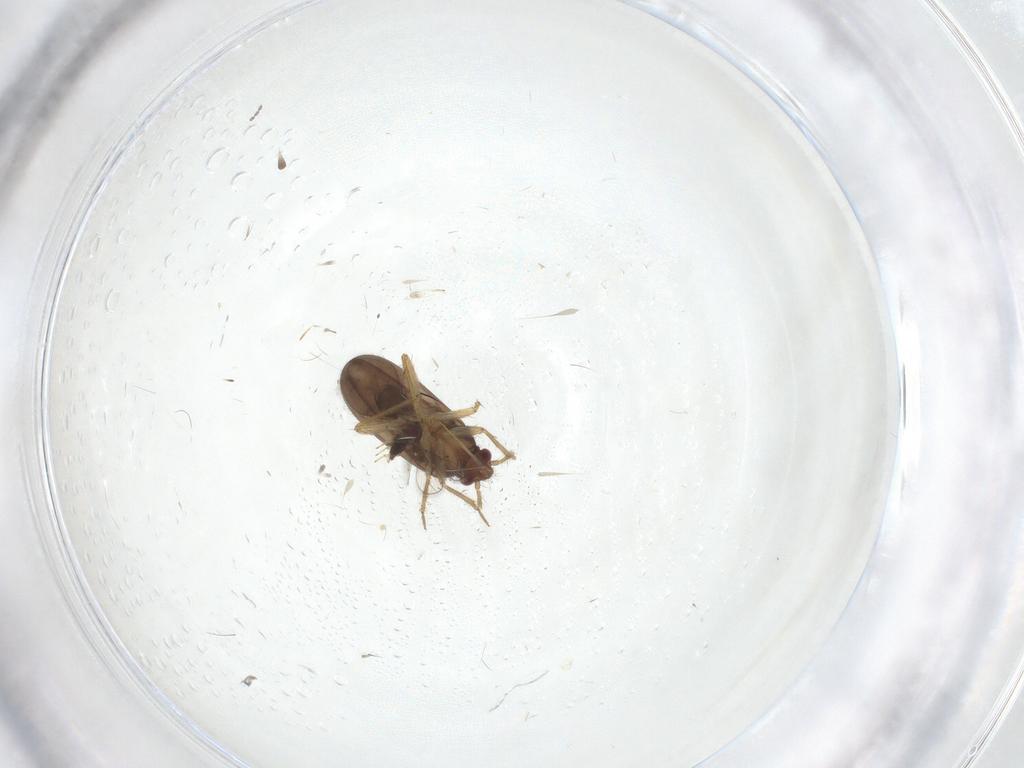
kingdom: Animalia
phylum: Arthropoda
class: Insecta
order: Hemiptera
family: Ceratocombidae
